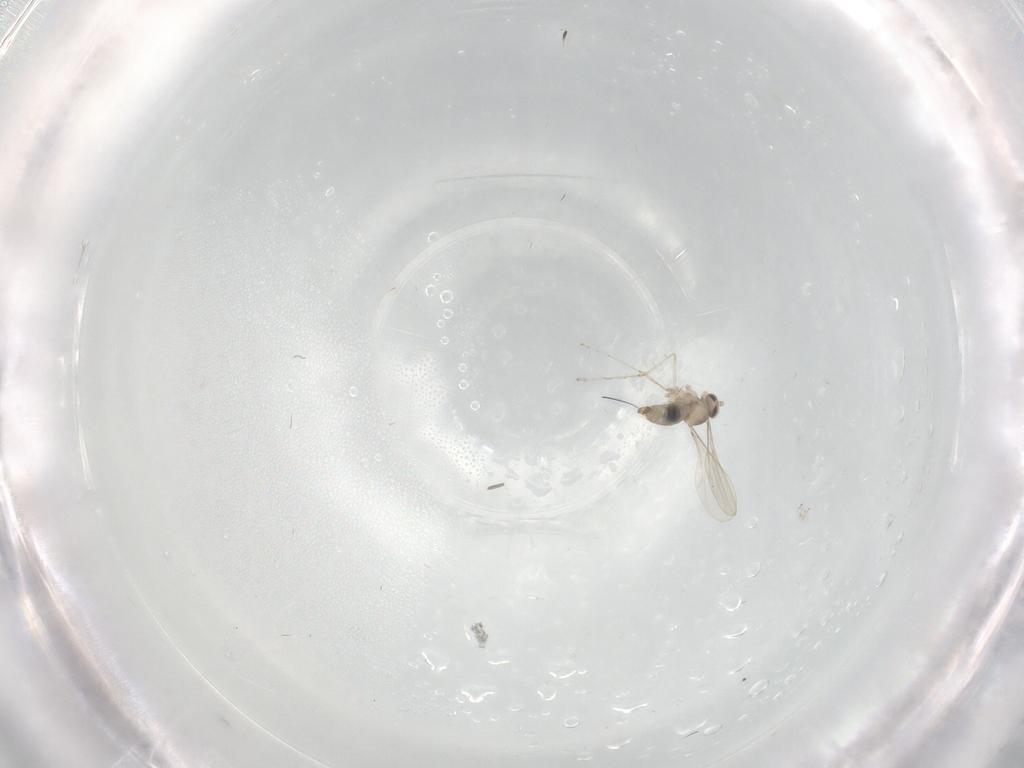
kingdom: Animalia
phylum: Arthropoda
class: Insecta
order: Diptera
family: Cecidomyiidae
